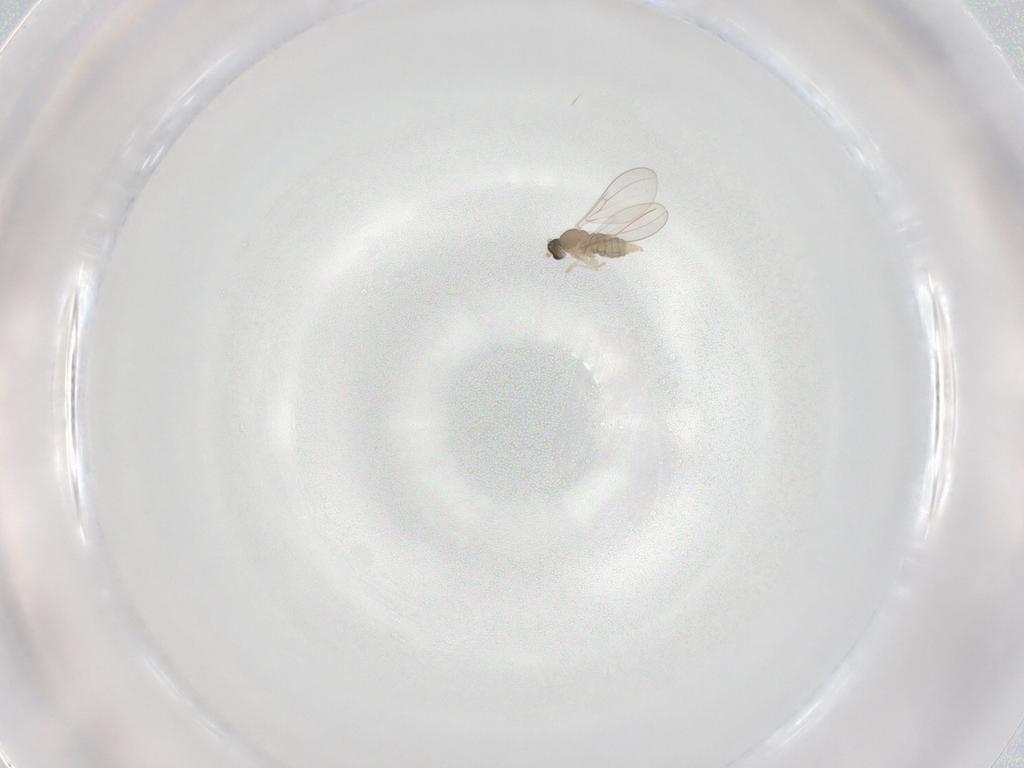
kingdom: Animalia
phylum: Arthropoda
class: Insecta
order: Diptera
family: Cecidomyiidae
